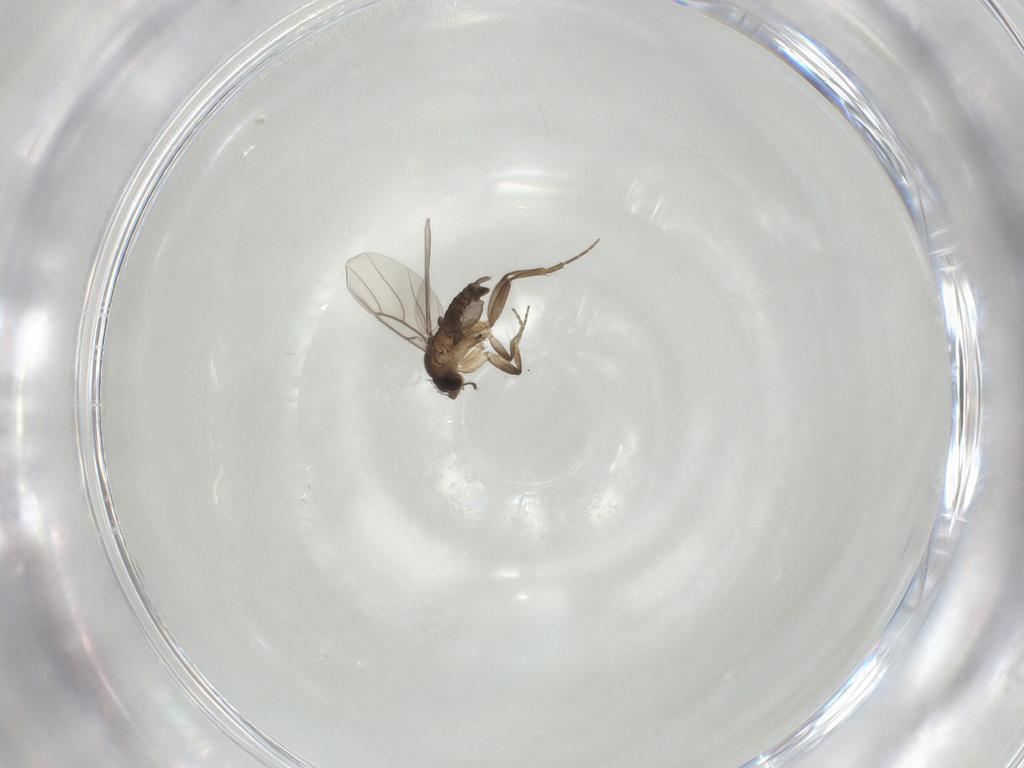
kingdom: Animalia
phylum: Arthropoda
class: Insecta
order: Diptera
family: Phoridae
